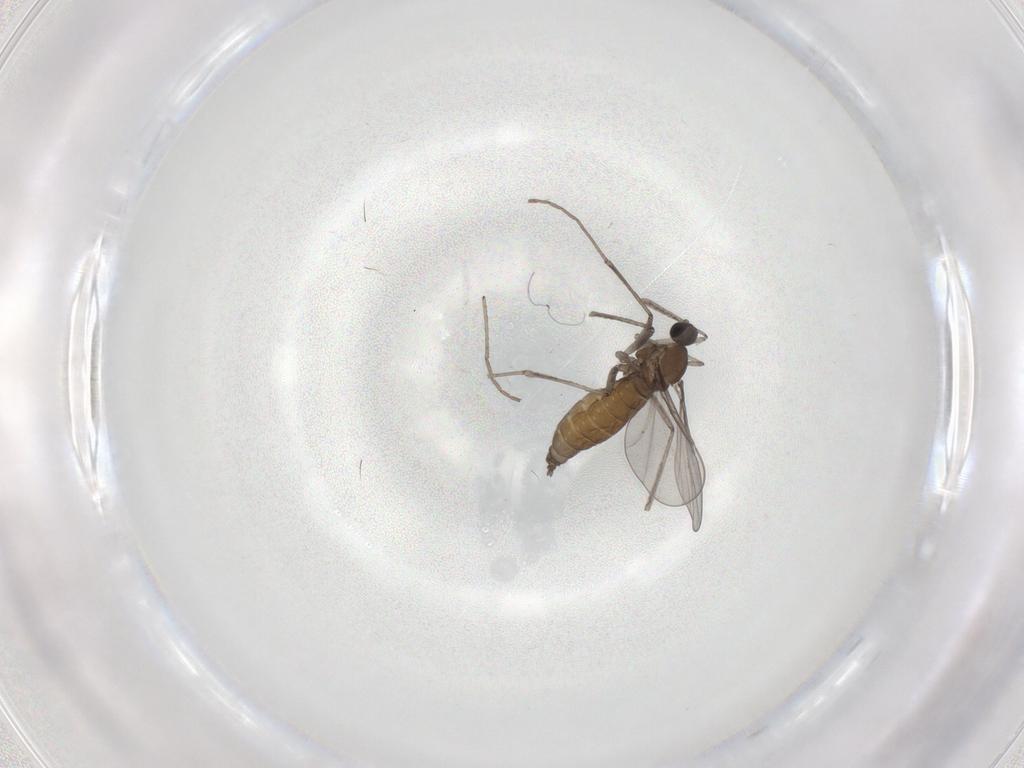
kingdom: Animalia
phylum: Arthropoda
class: Insecta
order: Diptera
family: Cecidomyiidae
